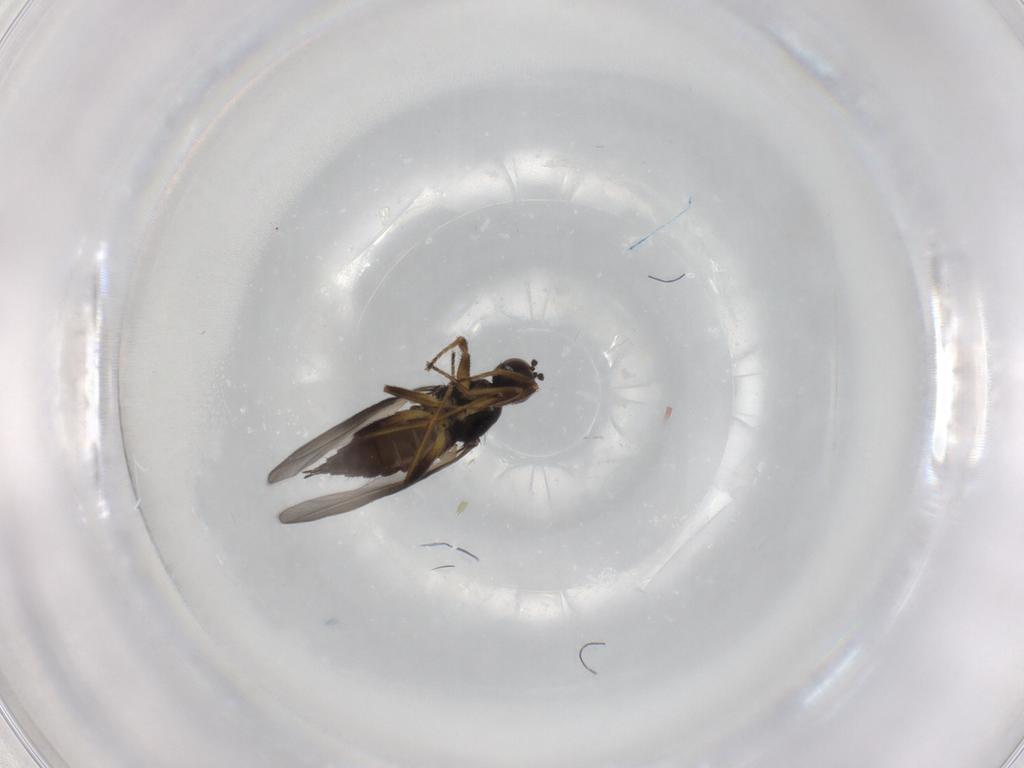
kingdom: Animalia
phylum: Arthropoda
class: Insecta
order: Diptera
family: Hybotidae
